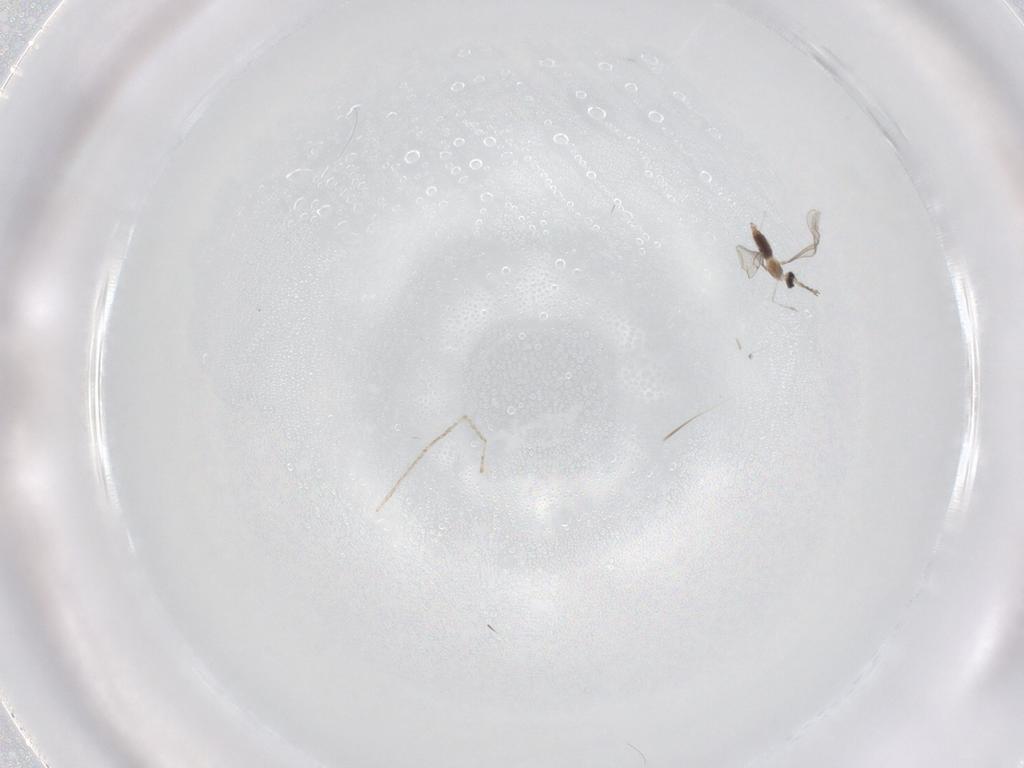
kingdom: Animalia
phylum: Arthropoda
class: Insecta
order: Diptera
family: Cecidomyiidae
